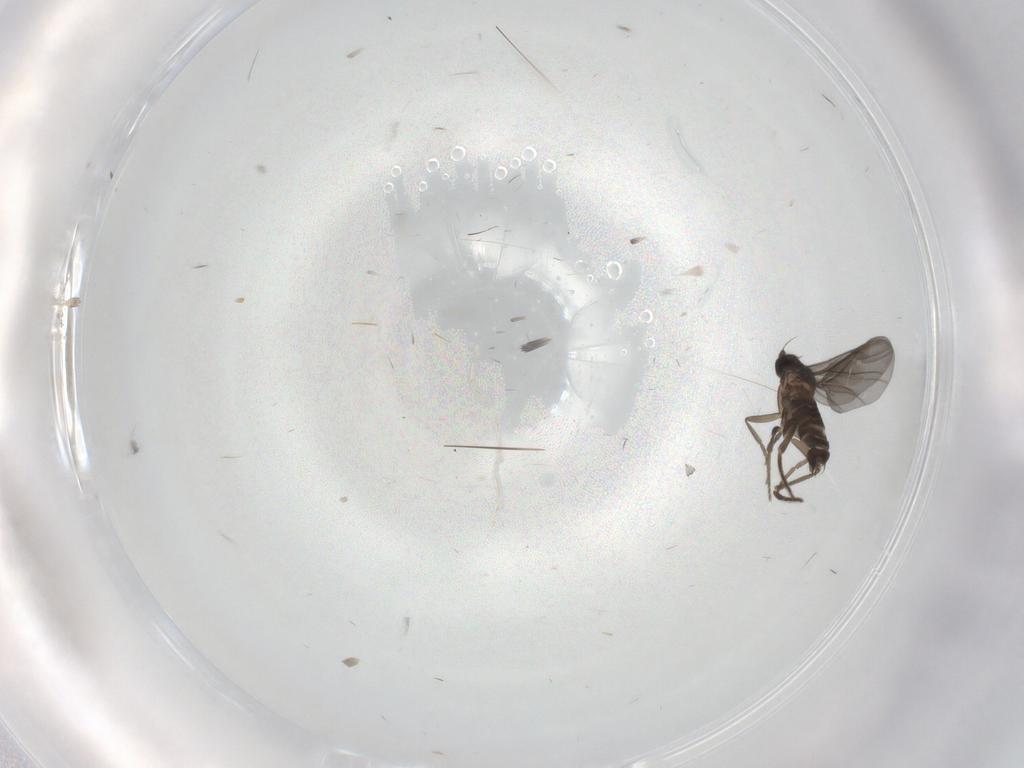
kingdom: Animalia
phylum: Arthropoda
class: Insecta
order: Diptera
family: Phoridae
